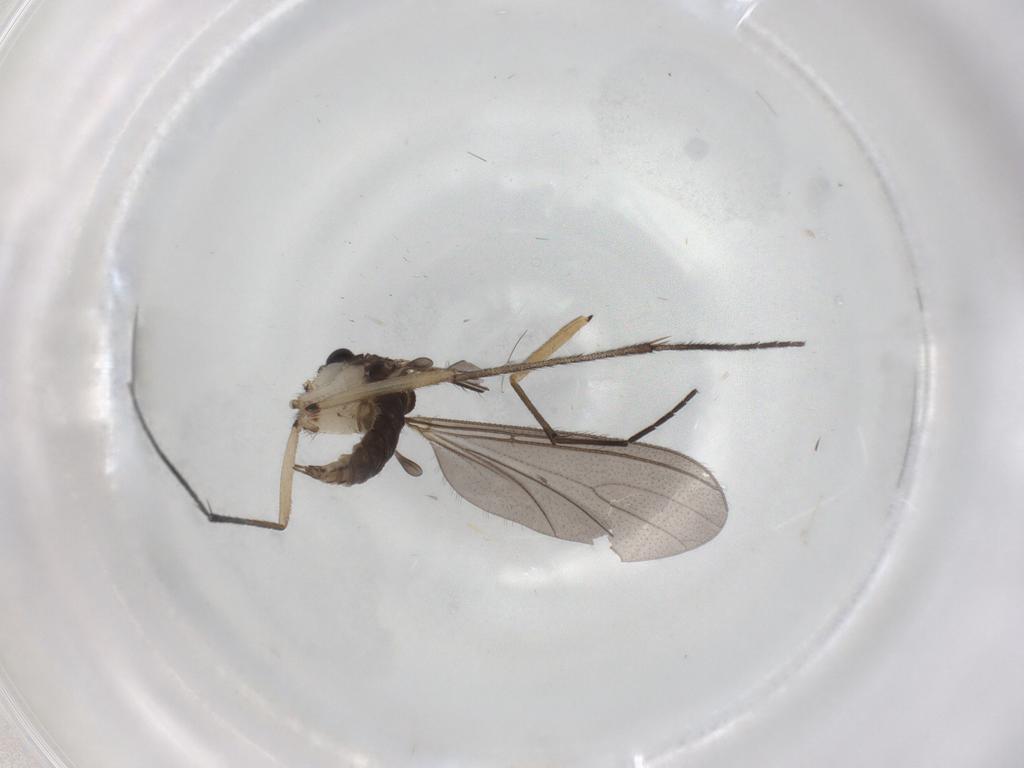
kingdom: Animalia
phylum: Arthropoda
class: Insecta
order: Diptera
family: Sciaridae
